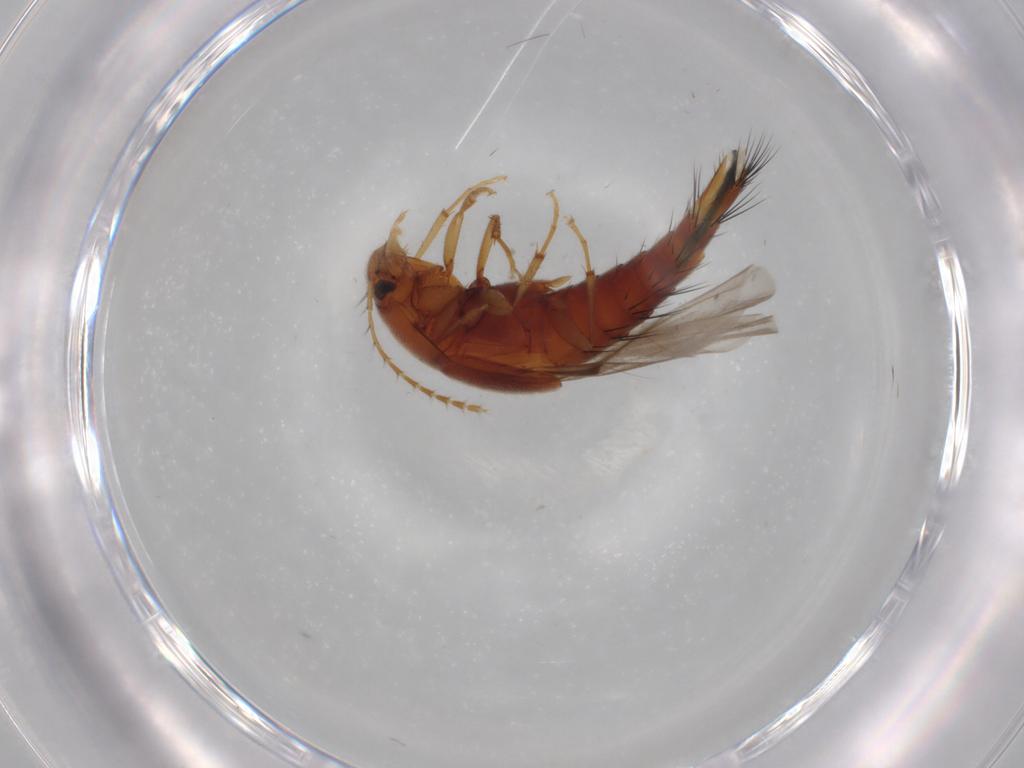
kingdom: Animalia
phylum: Arthropoda
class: Insecta
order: Coleoptera
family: Staphylinidae
